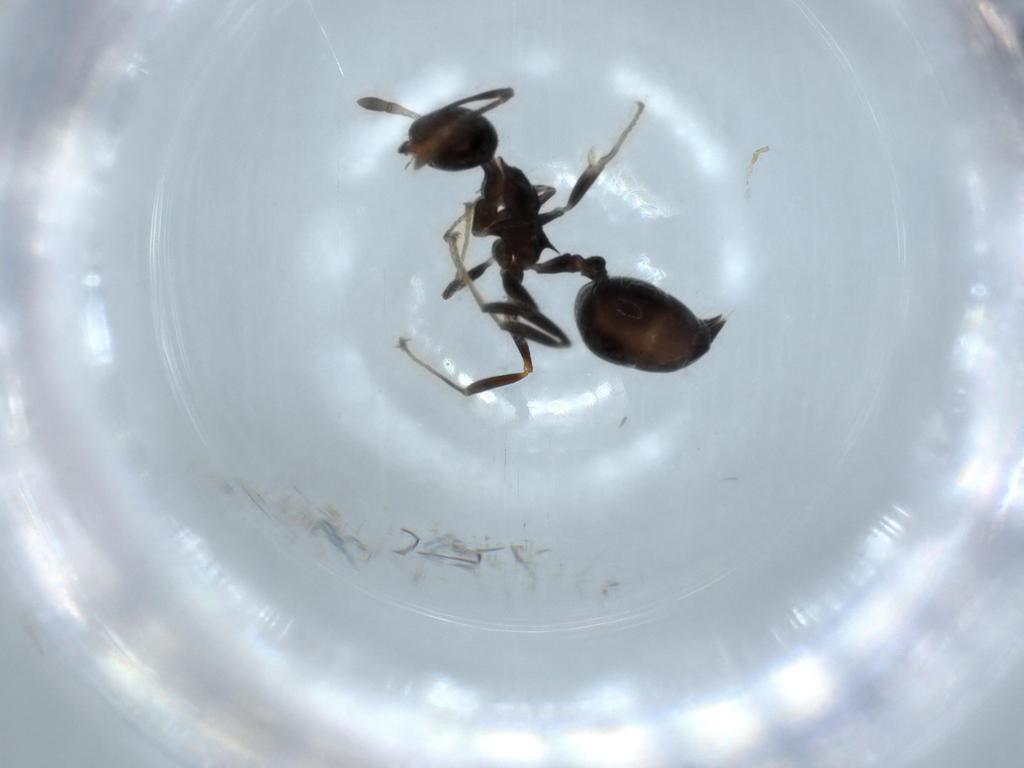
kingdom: Animalia
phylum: Arthropoda
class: Insecta
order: Hymenoptera
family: Formicidae
